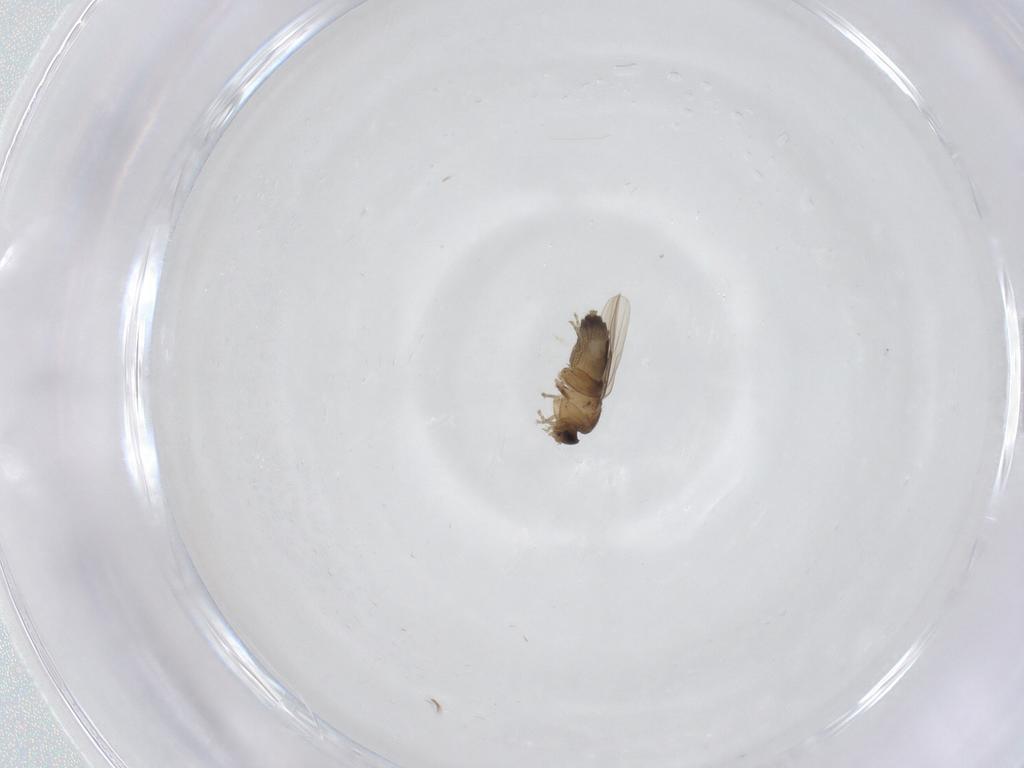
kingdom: Animalia
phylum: Arthropoda
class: Insecta
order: Diptera
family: Phoridae
